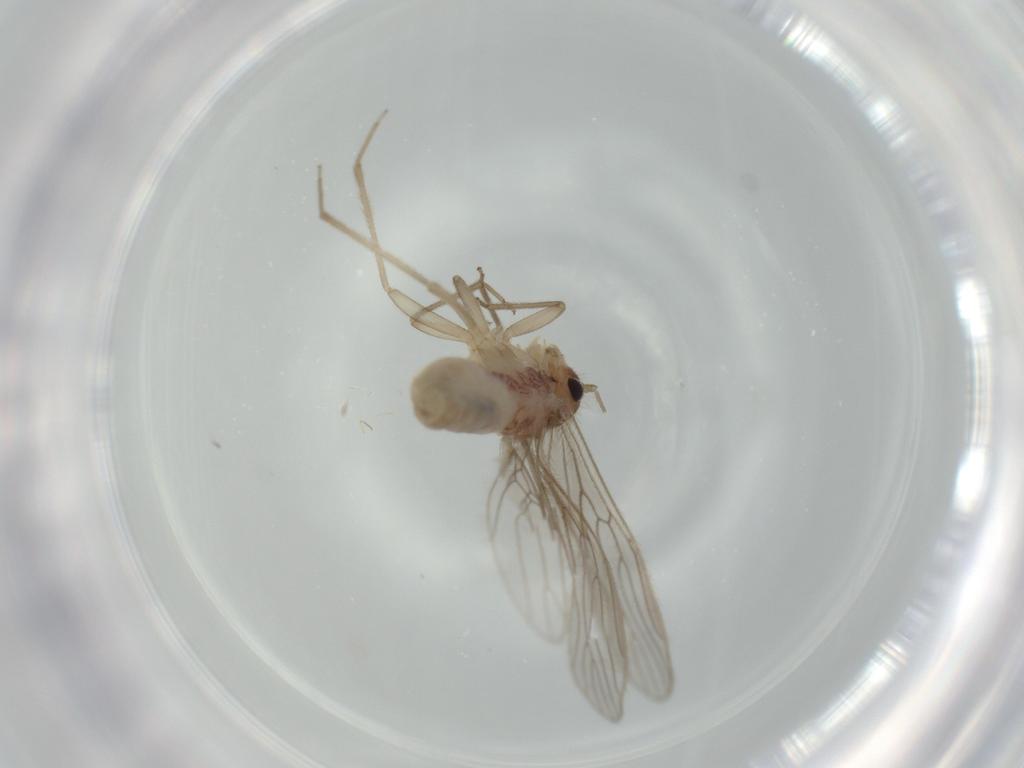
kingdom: Animalia
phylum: Arthropoda
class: Insecta
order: Psocodea
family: Cladiopsocidae
